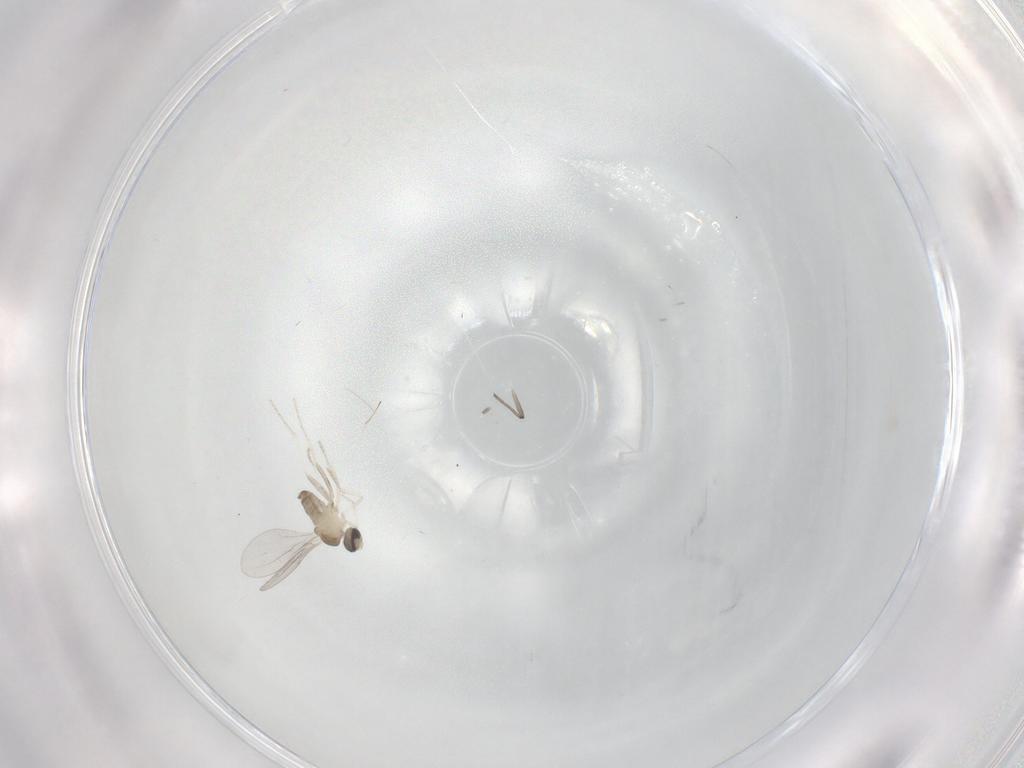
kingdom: Animalia
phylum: Arthropoda
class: Insecta
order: Diptera
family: Cecidomyiidae
